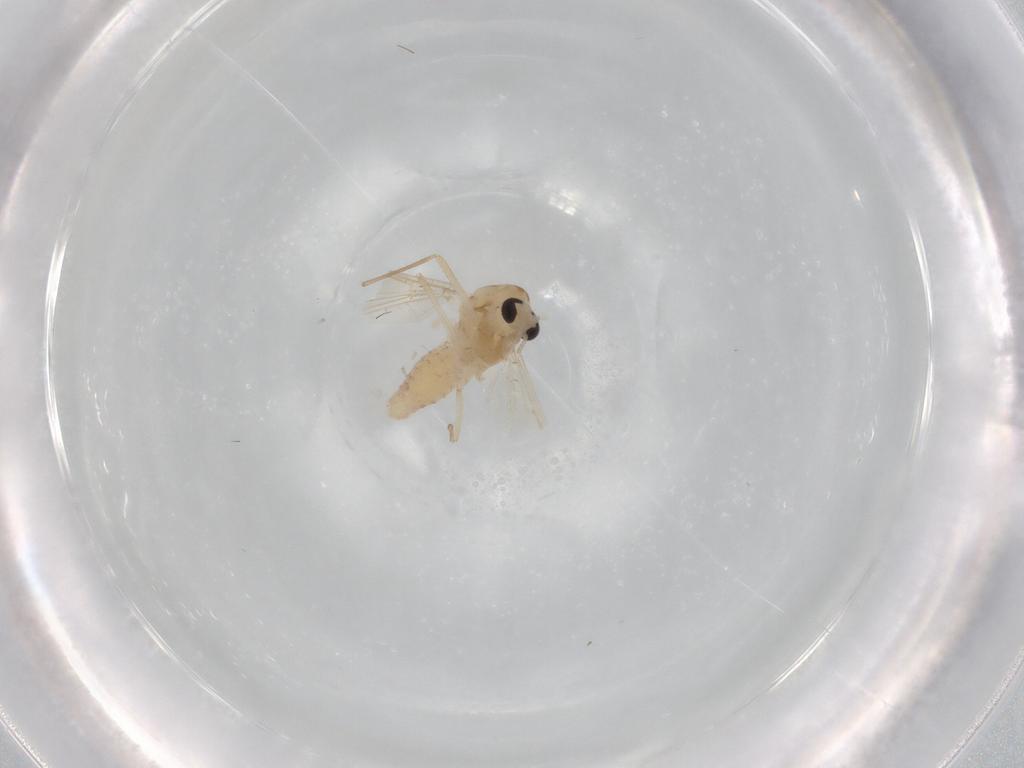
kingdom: Animalia
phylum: Arthropoda
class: Insecta
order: Diptera
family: Chironomidae
